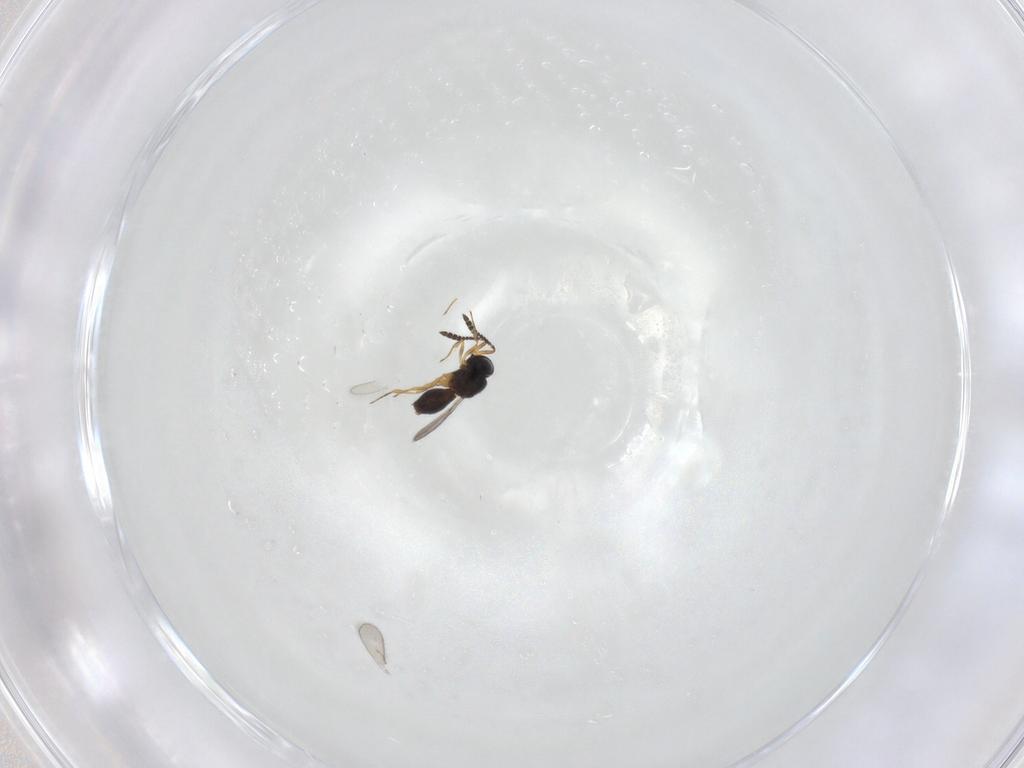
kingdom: Animalia
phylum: Arthropoda
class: Insecta
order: Hymenoptera
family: Scelionidae
